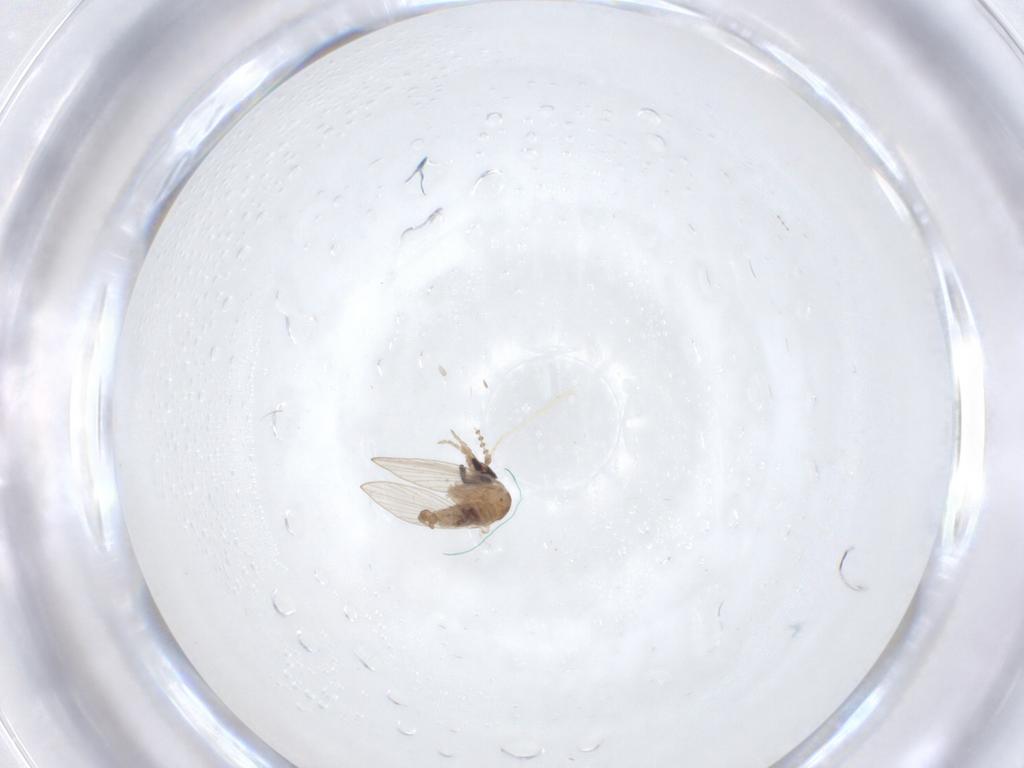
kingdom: Animalia
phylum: Arthropoda
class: Insecta
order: Diptera
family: Psychodidae
